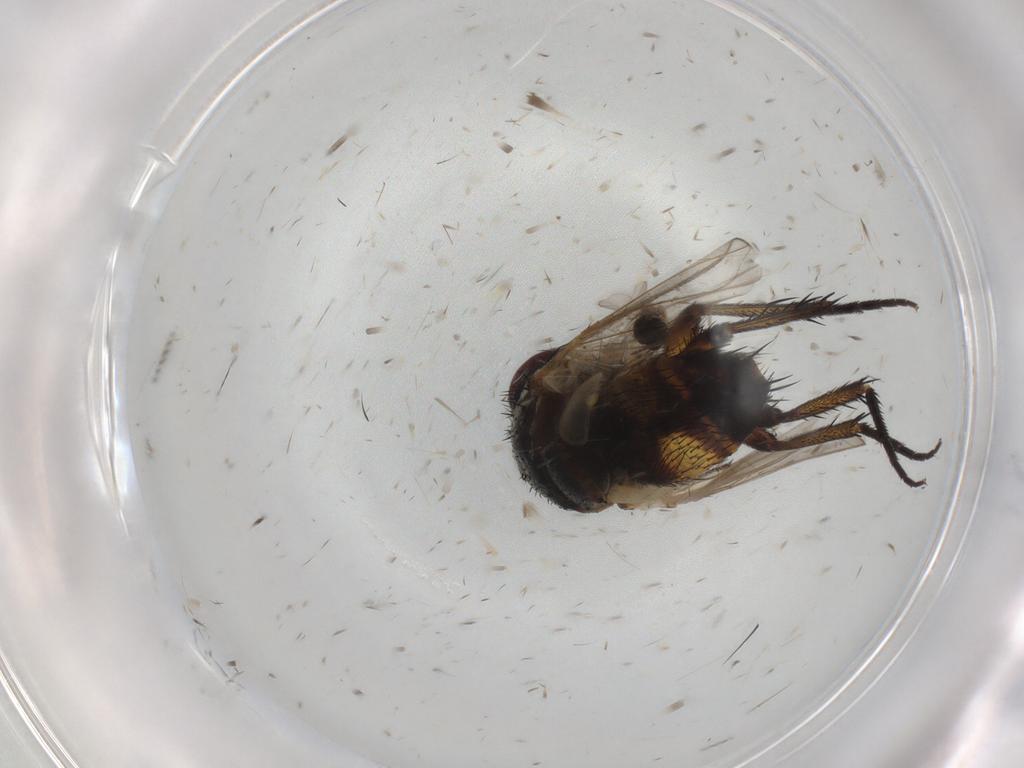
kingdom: Animalia
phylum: Arthropoda
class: Insecta
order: Diptera
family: Tachinidae
